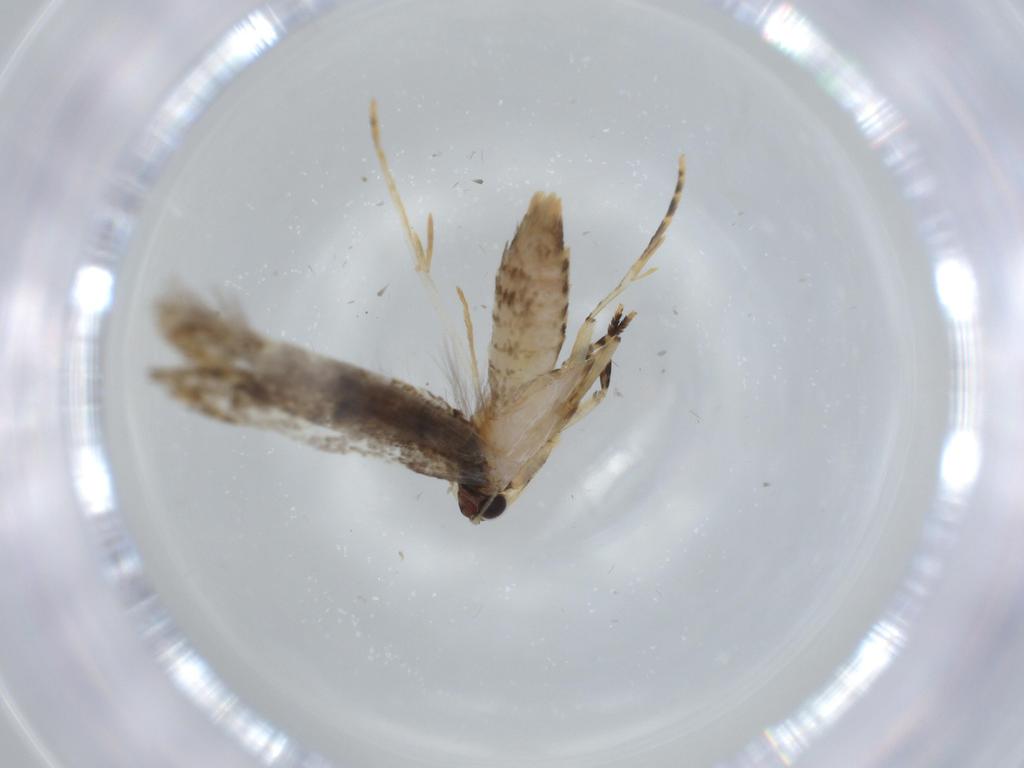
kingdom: Animalia
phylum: Arthropoda
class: Insecta
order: Lepidoptera
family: Tineidae
